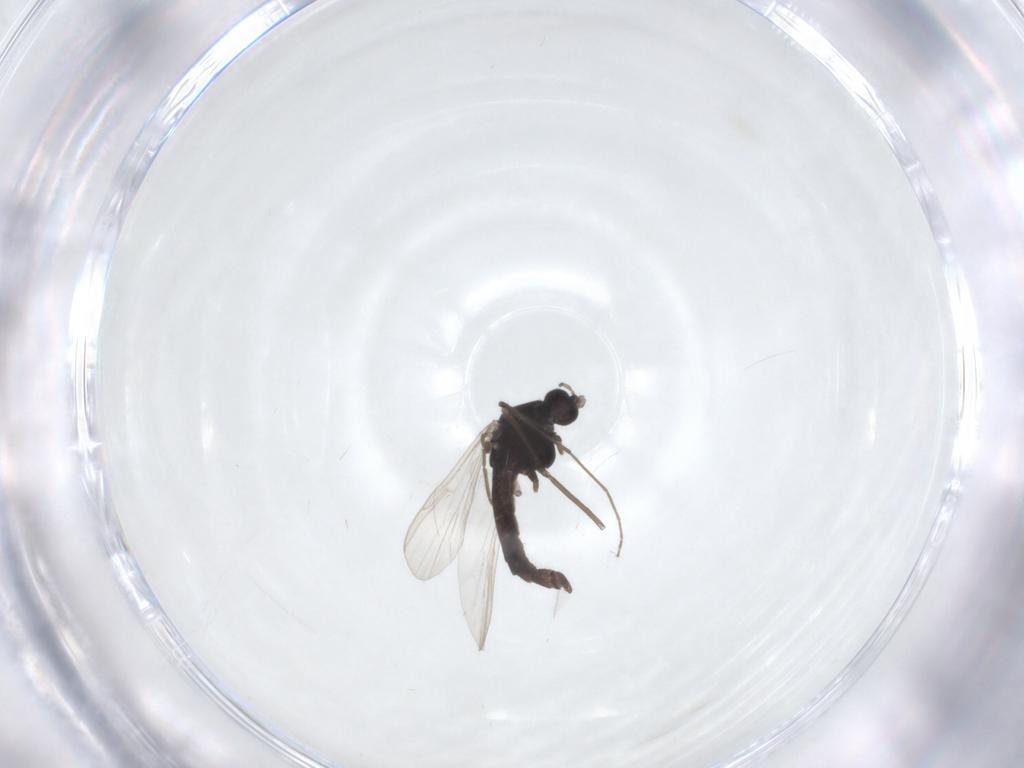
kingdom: Animalia
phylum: Arthropoda
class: Insecta
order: Diptera
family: Chironomidae
